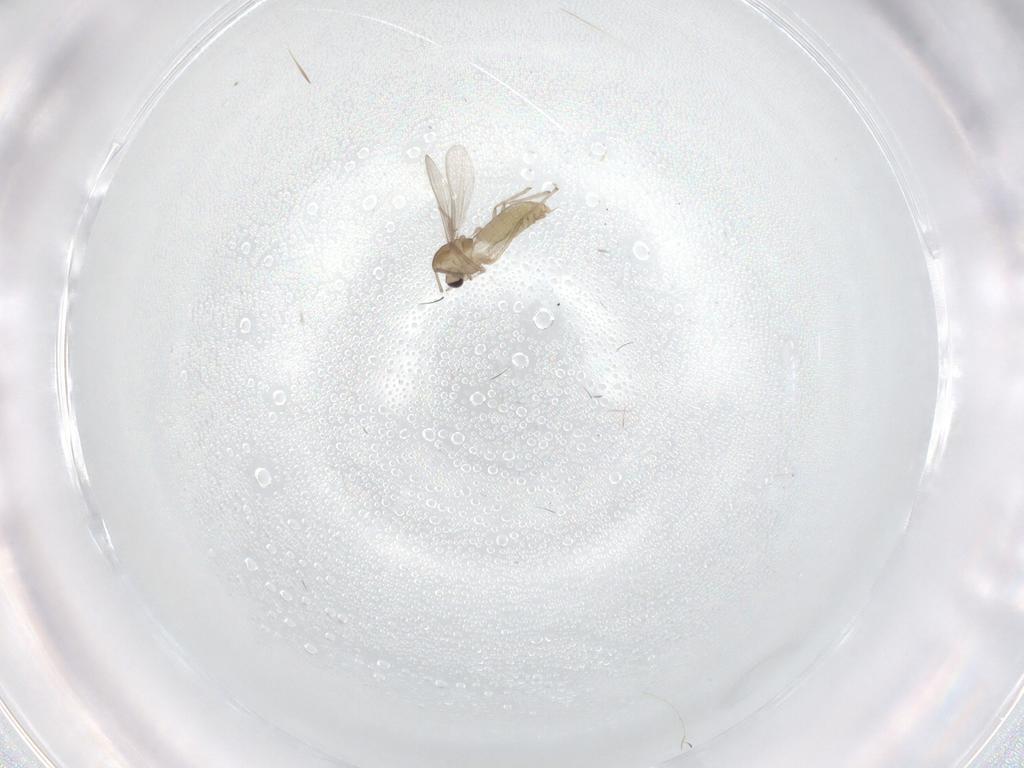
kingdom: Animalia
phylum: Arthropoda
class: Insecta
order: Diptera
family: Chironomidae
